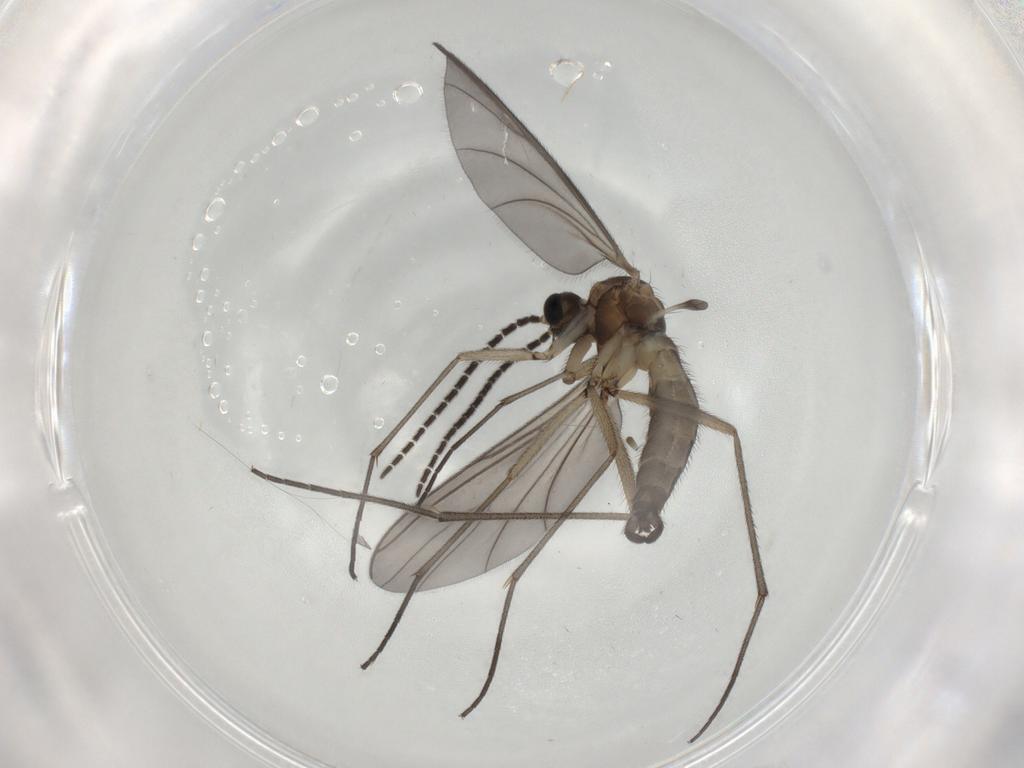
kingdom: Animalia
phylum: Arthropoda
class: Insecta
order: Diptera
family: Sciaridae
